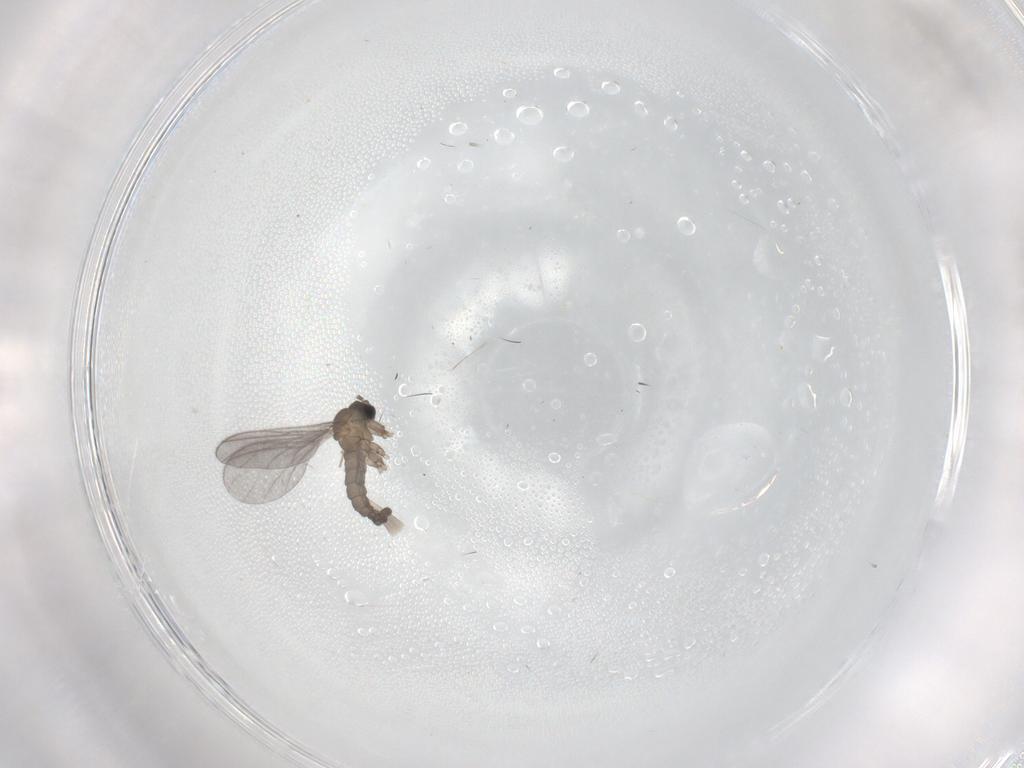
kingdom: Animalia
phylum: Arthropoda
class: Insecta
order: Diptera
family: Sciaridae
